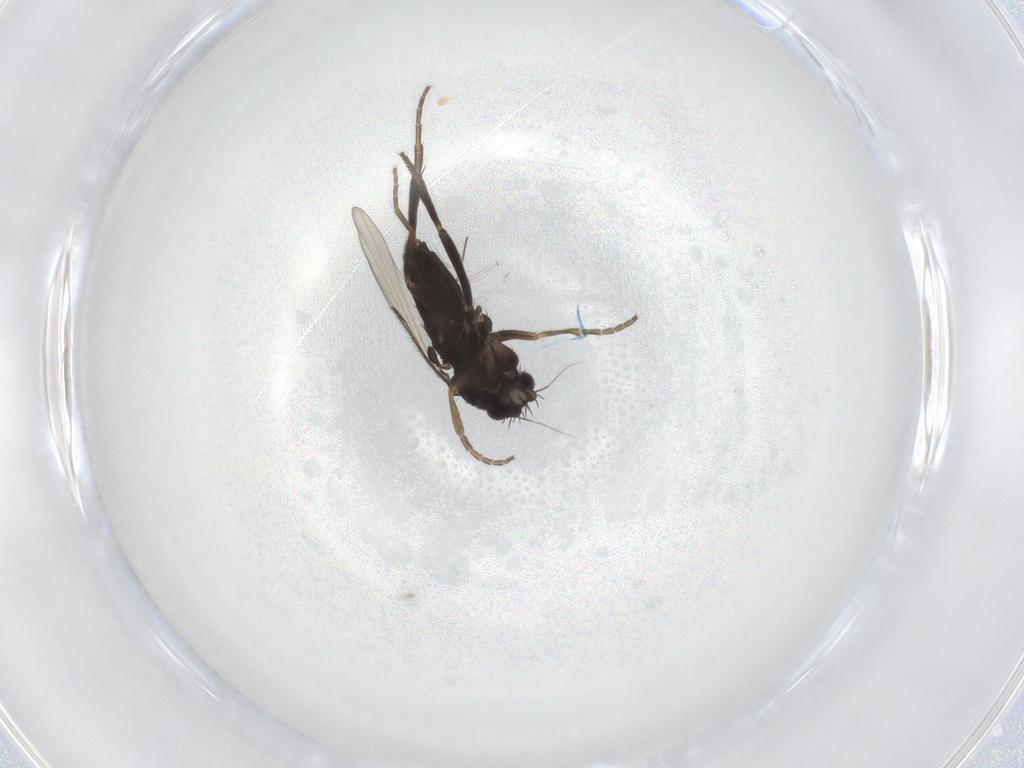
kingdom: Animalia
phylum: Arthropoda
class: Insecta
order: Diptera
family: Phoridae
